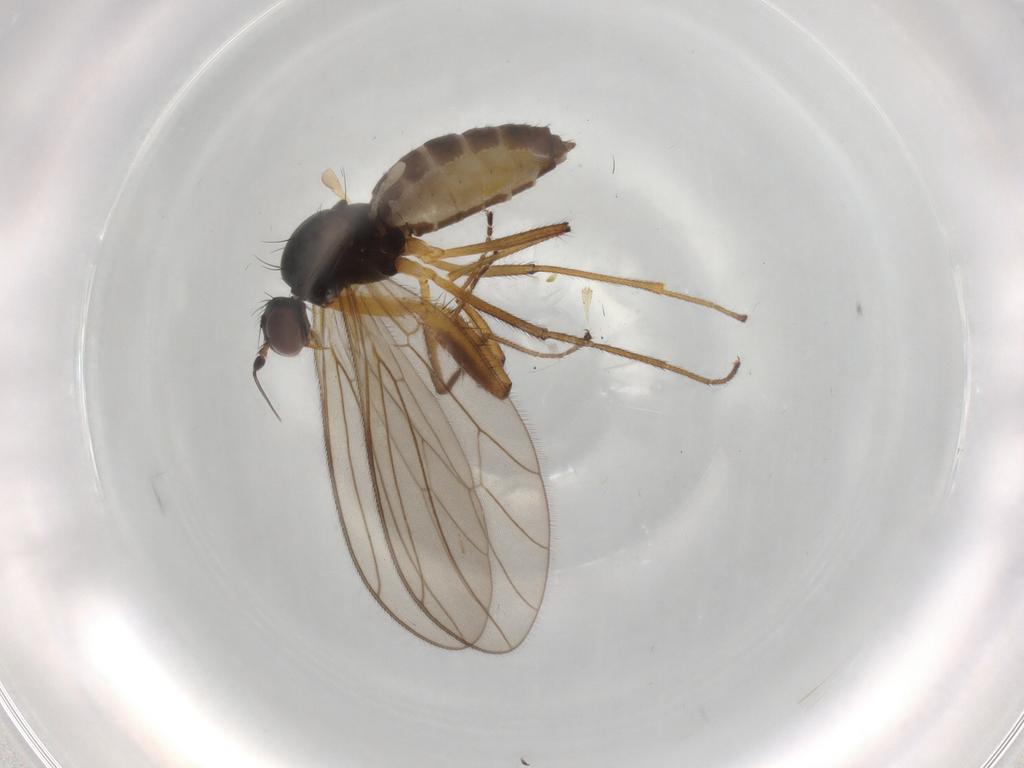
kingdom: Animalia
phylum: Arthropoda
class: Insecta
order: Diptera
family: Empididae
